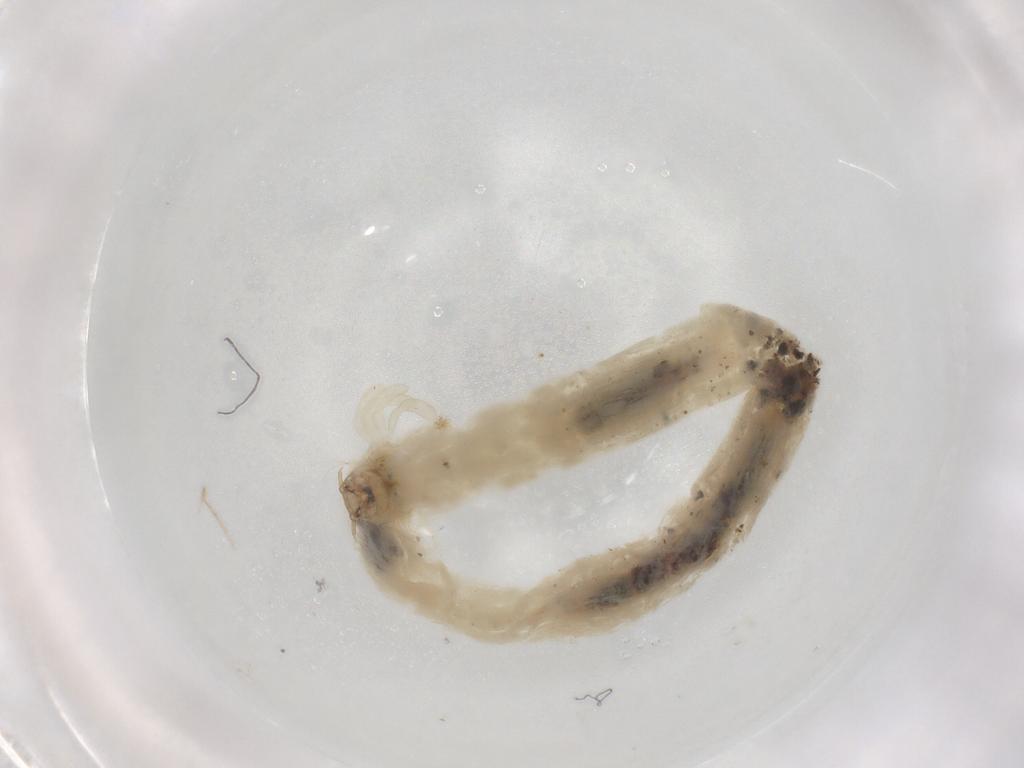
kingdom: Animalia
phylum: Arthropoda
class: Insecta
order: Diptera
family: Chironomidae
